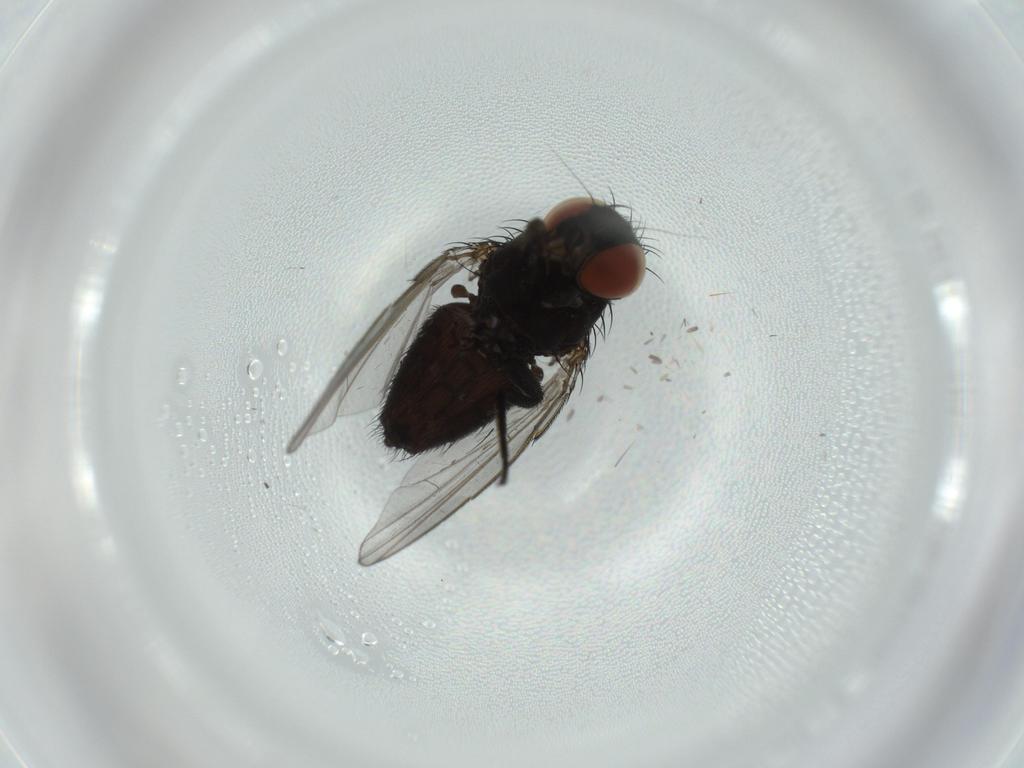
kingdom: Animalia
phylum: Arthropoda
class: Insecta
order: Diptera
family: Milichiidae
